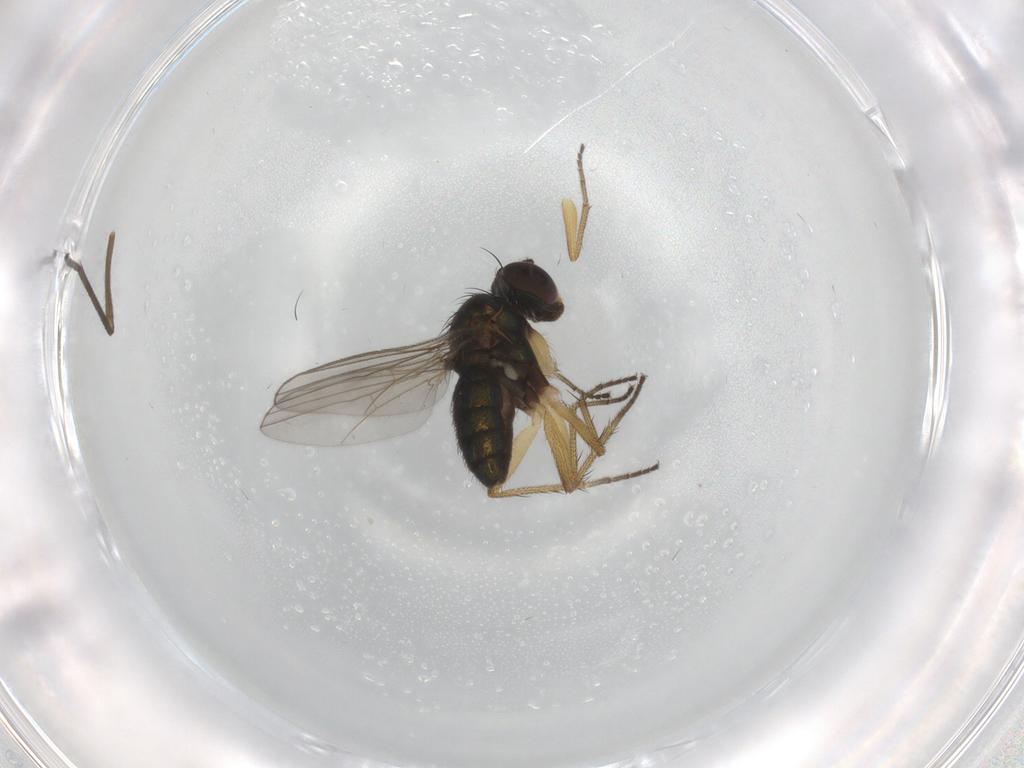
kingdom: Animalia
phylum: Arthropoda
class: Insecta
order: Diptera
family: Sciaridae
